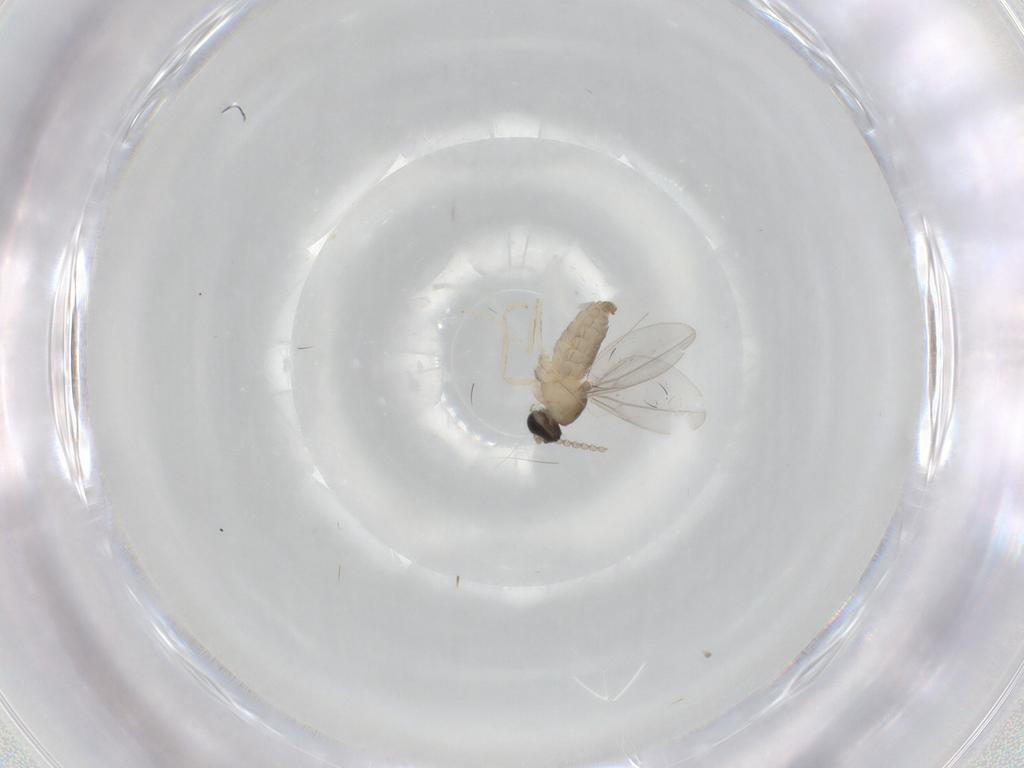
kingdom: Animalia
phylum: Arthropoda
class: Insecta
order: Diptera
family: Cecidomyiidae
